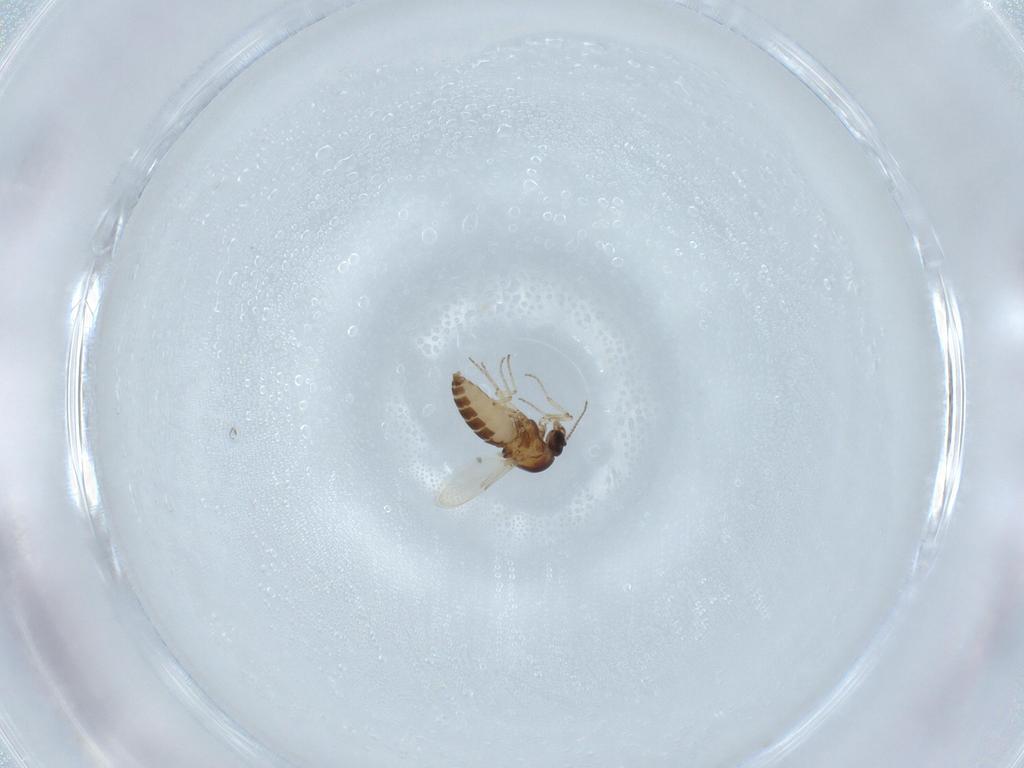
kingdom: Animalia
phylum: Arthropoda
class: Insecta
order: Diptera
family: Ceratopogonidae
